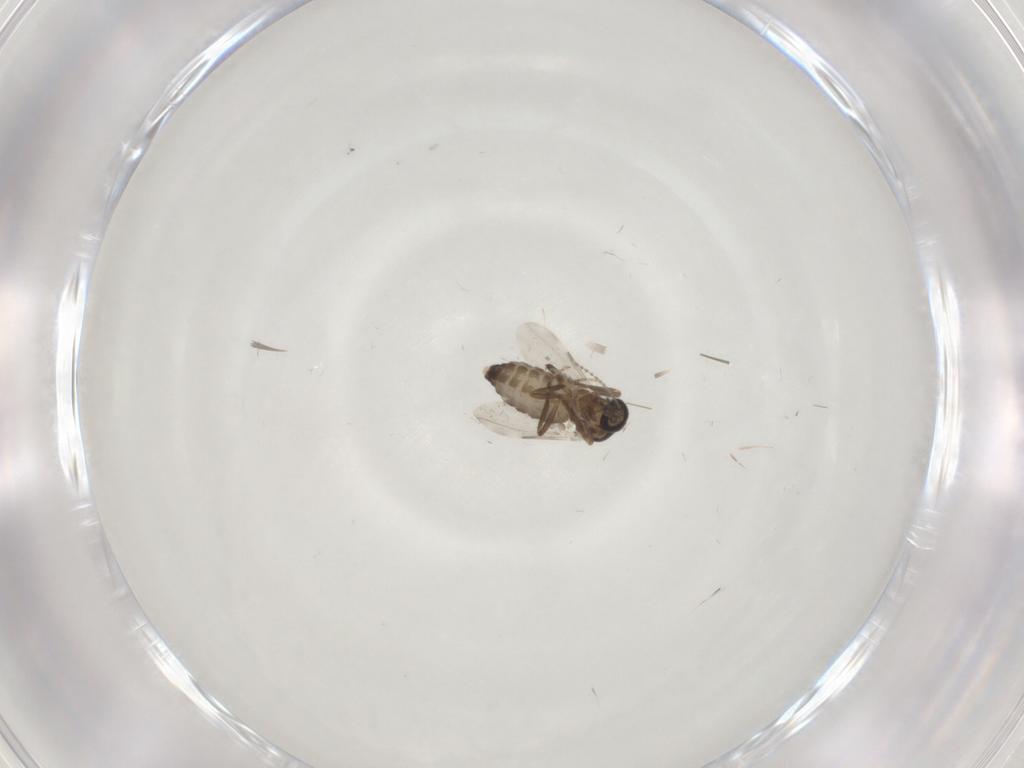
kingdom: Animalia
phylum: Arthropoda
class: Insecta
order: Diptera
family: Ceratopogonidae
